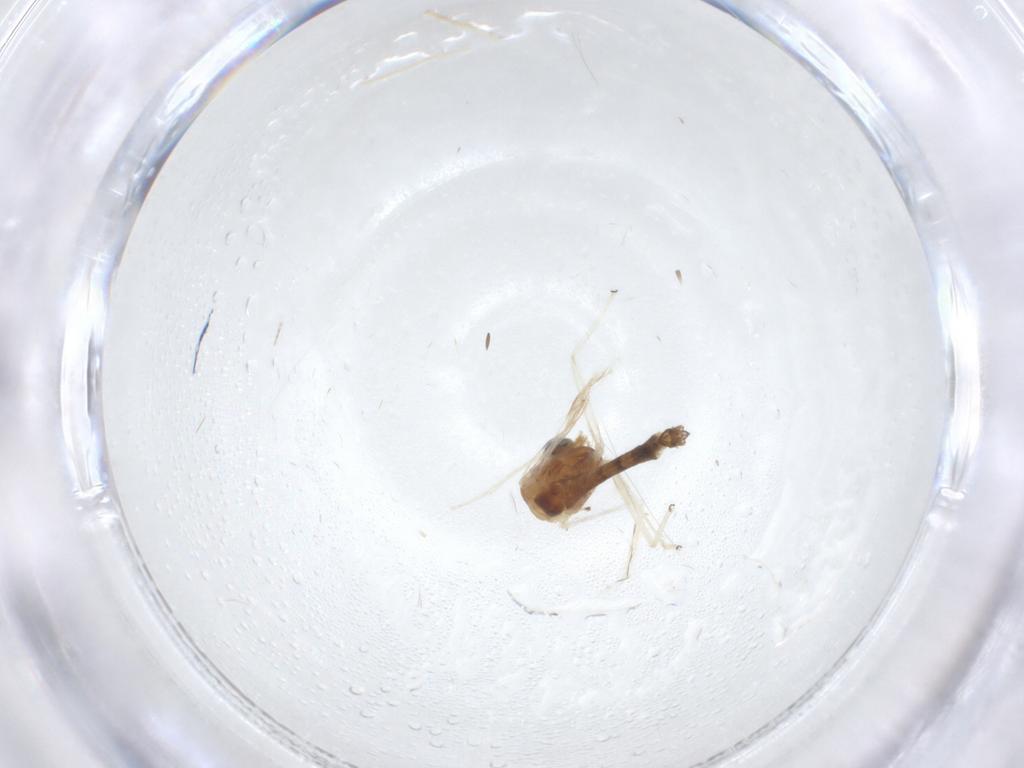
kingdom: Animalia
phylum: Arthropoda
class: Insecta
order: Diptera
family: Chironomidae
